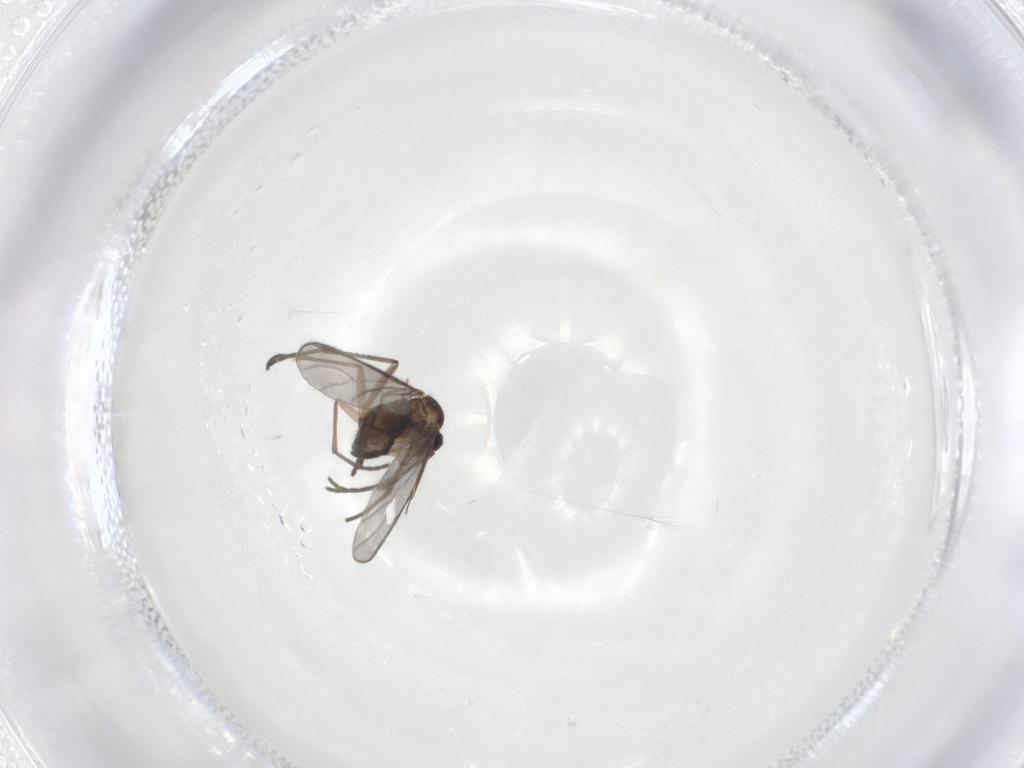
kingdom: Animalia
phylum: Arthropoda
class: Insecta
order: Diptera
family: Sciaridae
